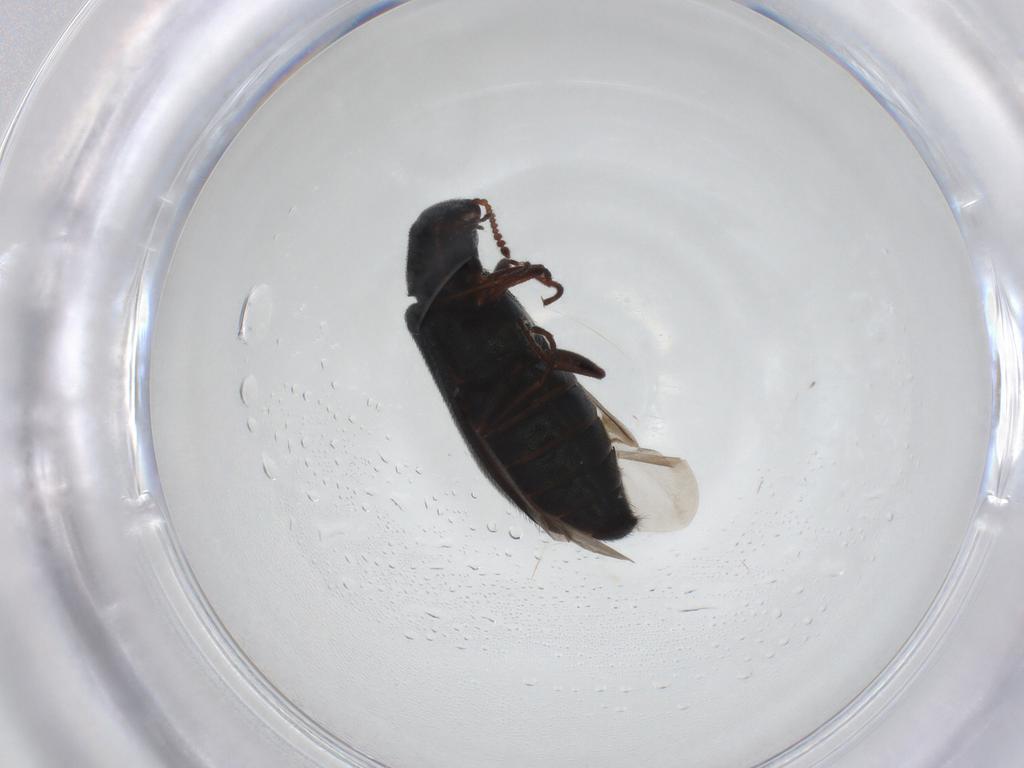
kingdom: Animalia
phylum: Arthropoda
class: Insecta
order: Coleoptera
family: Melyridae
